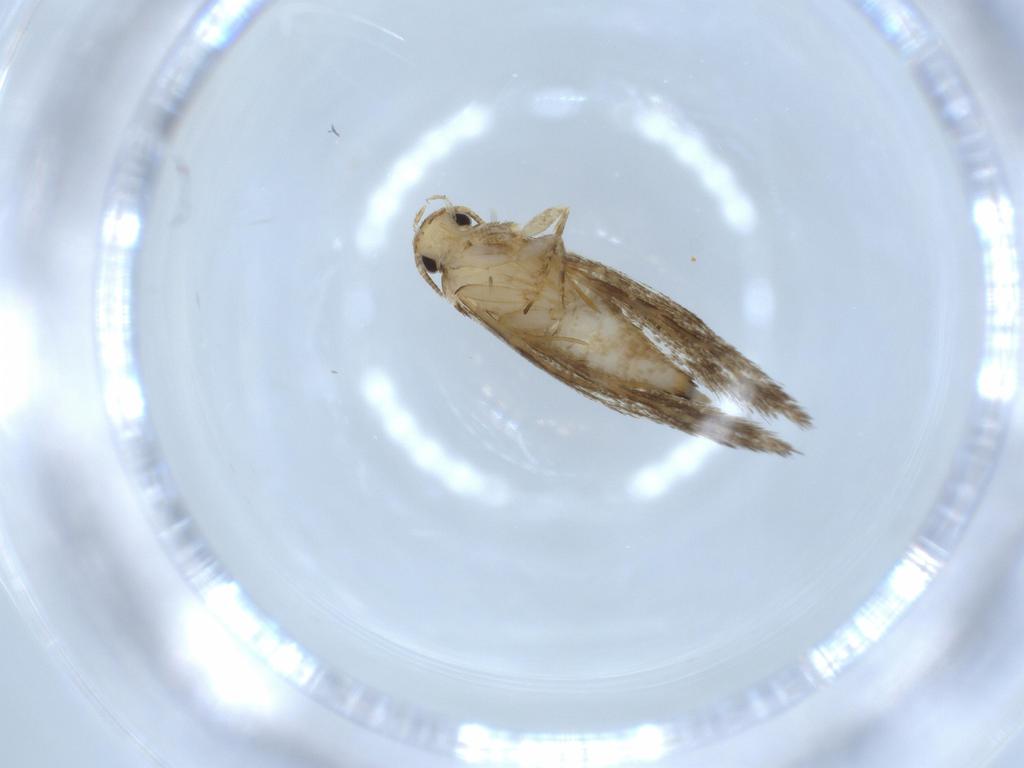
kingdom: Animalia
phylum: Arthropoda
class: Insecta
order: Lepidoptera
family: Tineidae
